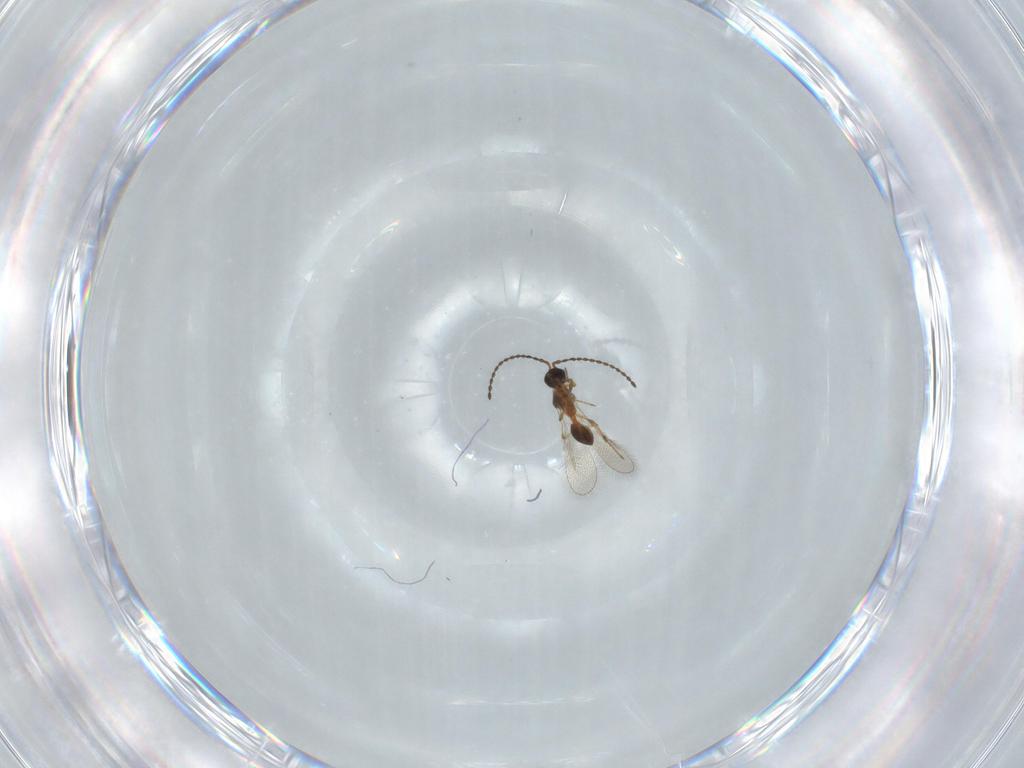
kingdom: Animalia
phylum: Arthropoda
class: Insecta
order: Hymenoptera
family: Diapriidae
